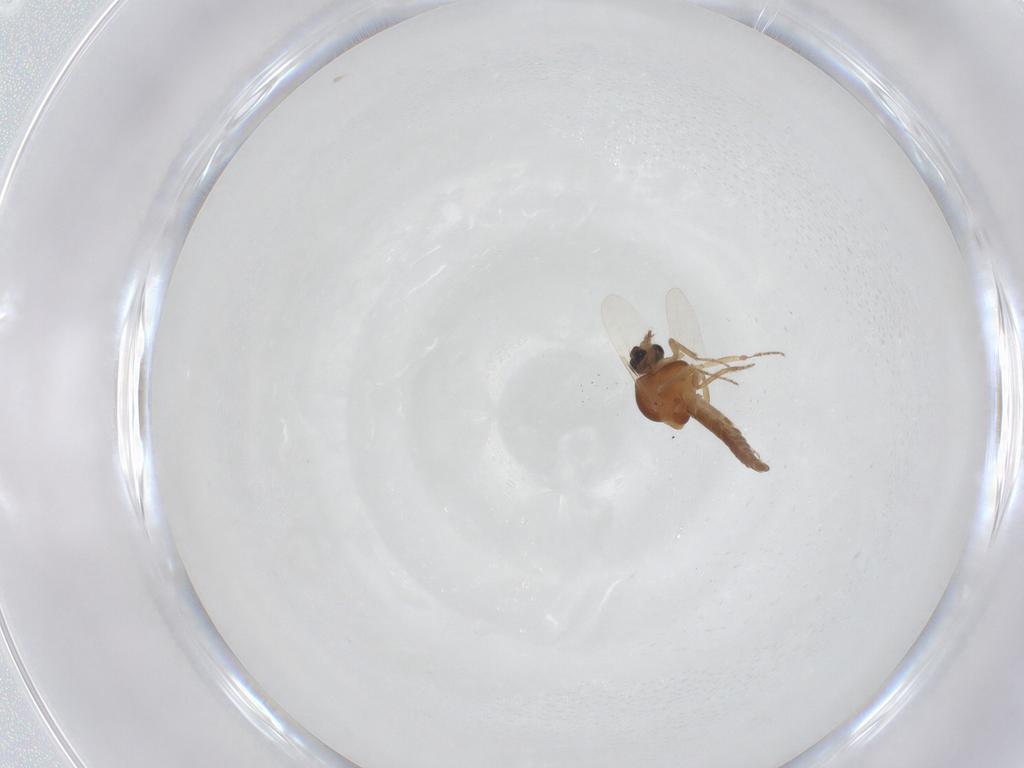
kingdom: Animalia
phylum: Arthropoda
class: Insecta
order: Diptera
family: Ceratopogonidae
